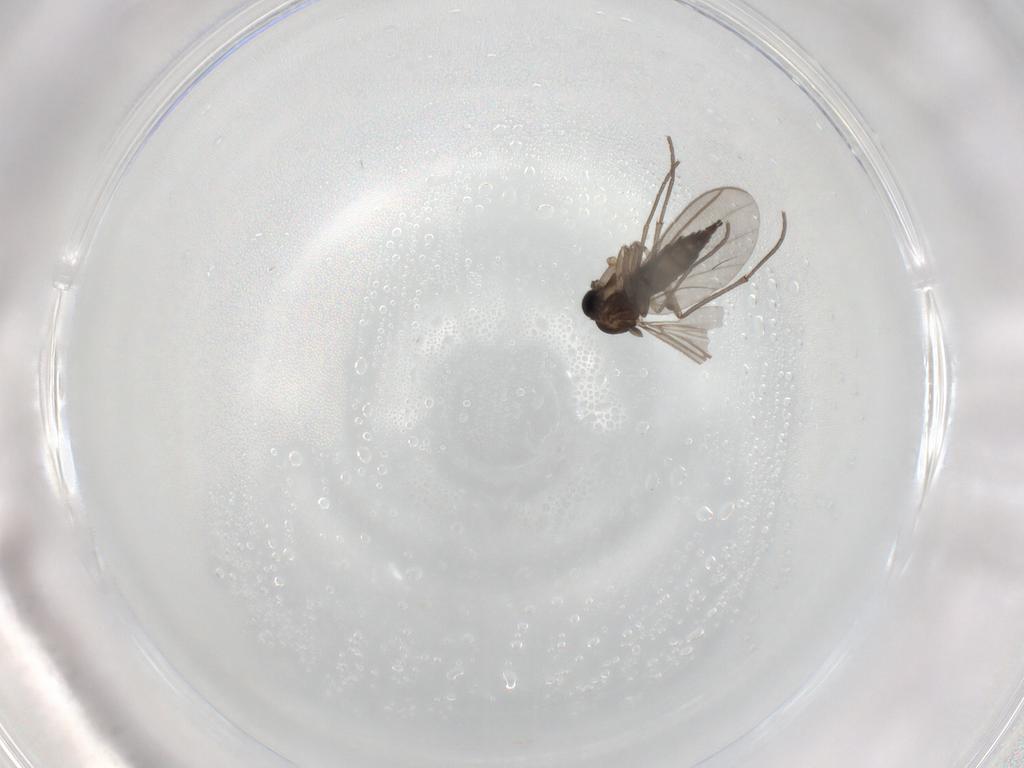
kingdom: Animalia
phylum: Arthropoda
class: Insecta
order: Diptera
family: Sciaridae
